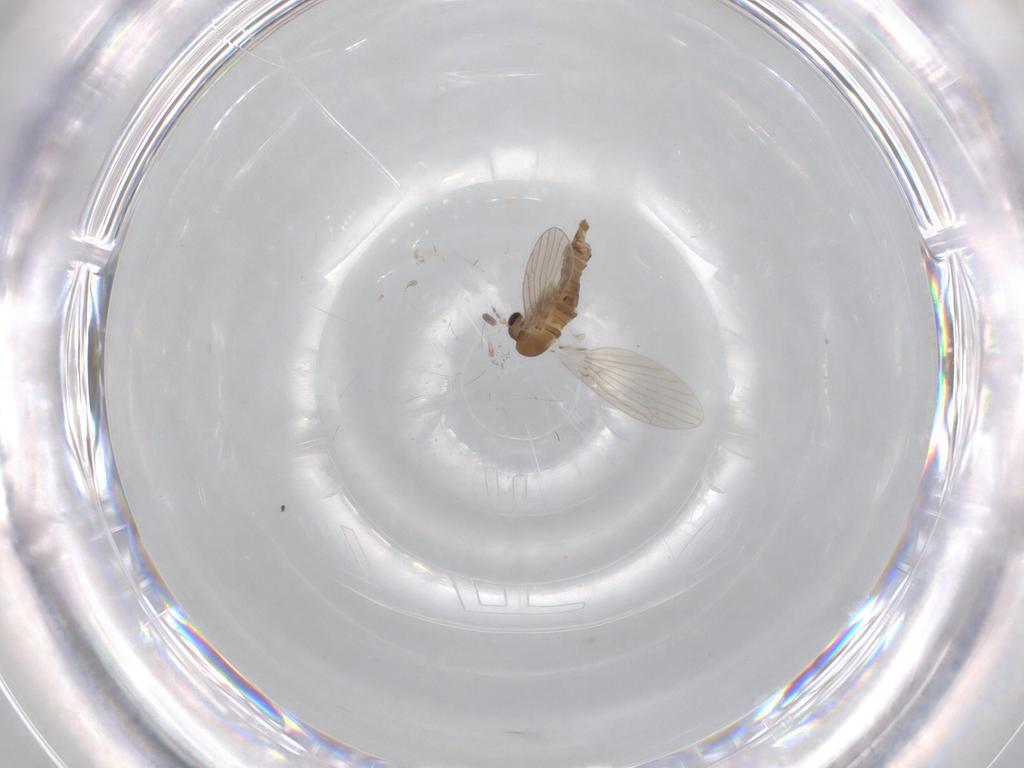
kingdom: Animalia
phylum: Arthropoda
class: Insecta
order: Diptera
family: Psychodidae
